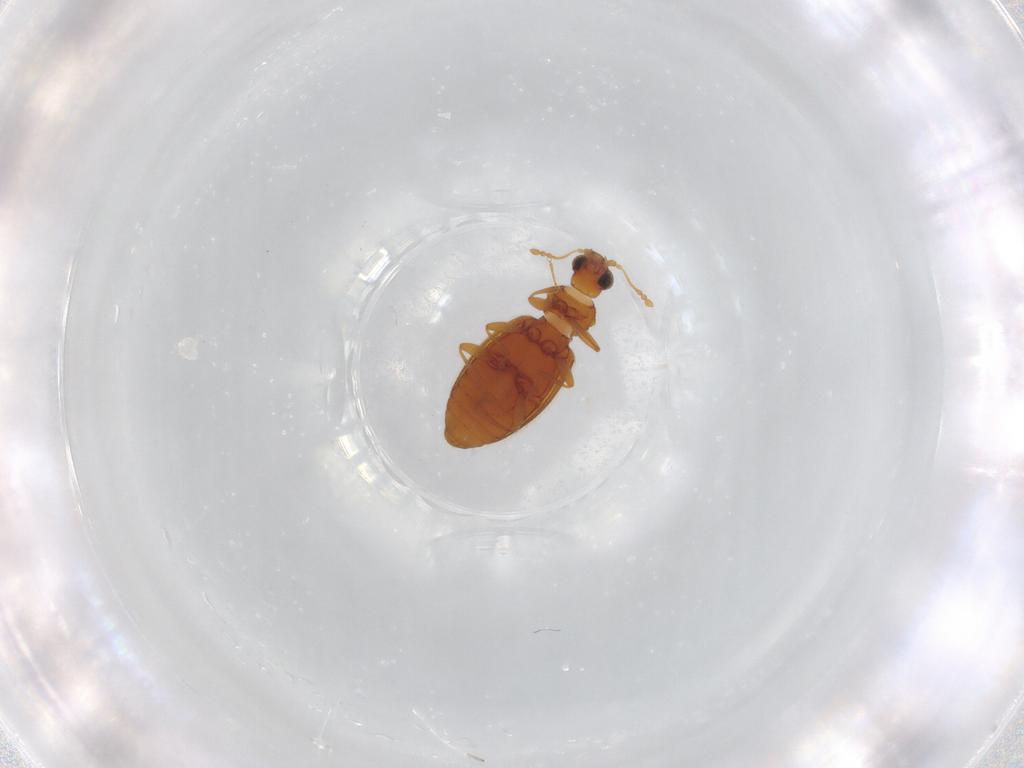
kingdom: Animalia
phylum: Arthropoda
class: Insecta
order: Coleoptera
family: Latridiidae
